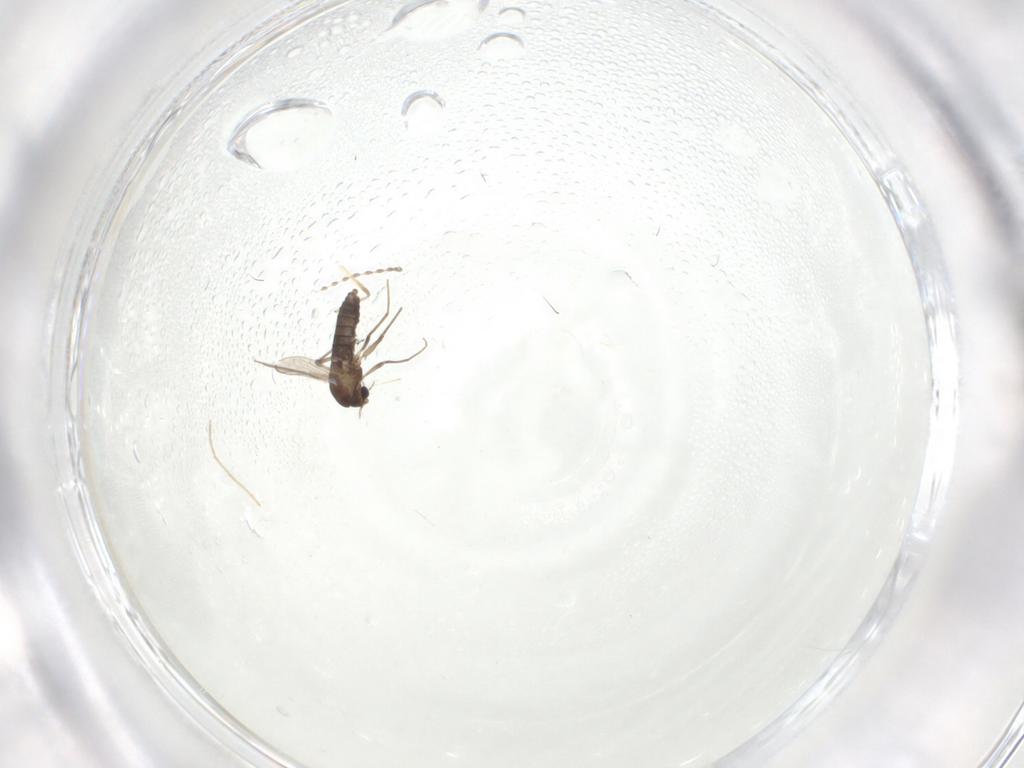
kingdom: Animalia
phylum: Arthropoda
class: Insecta
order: Diptera
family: Chironomidae
